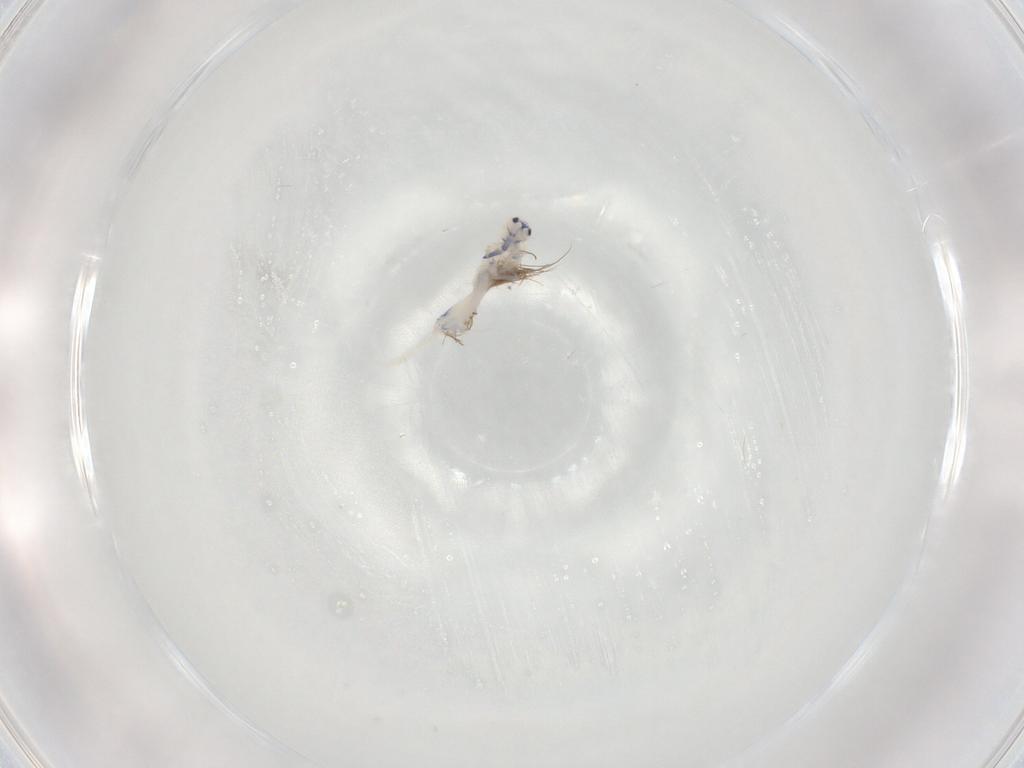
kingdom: Animalia
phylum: Arthropoda
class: Collembola
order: Entomobryomorpha
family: Entomobryidae
